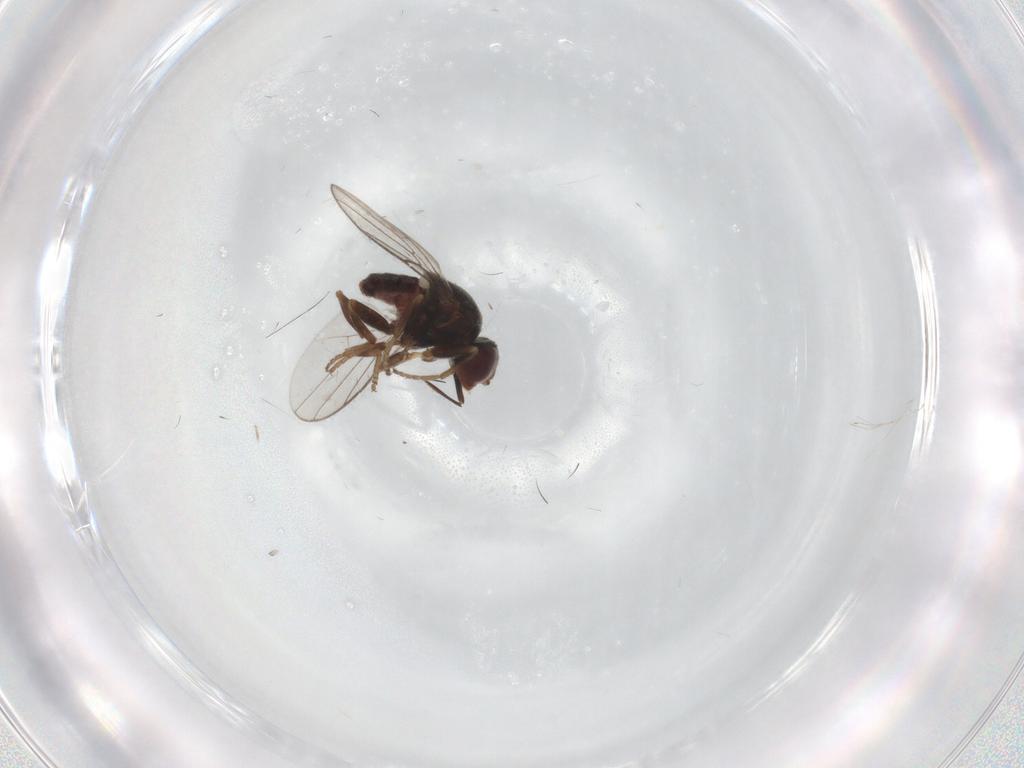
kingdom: Animalia
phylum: Arthropoda
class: Insecta
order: Diptera
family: Chloropidae
